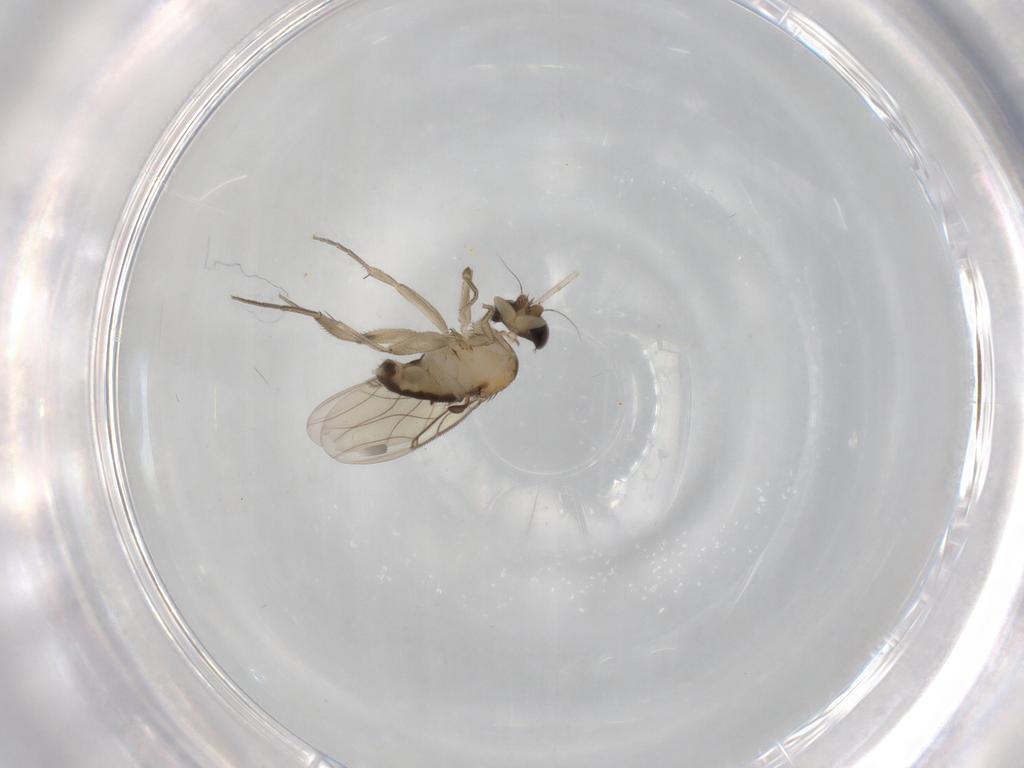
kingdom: Animalia
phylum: Arthropoda
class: Insecta
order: Diptera
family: Phoridae
